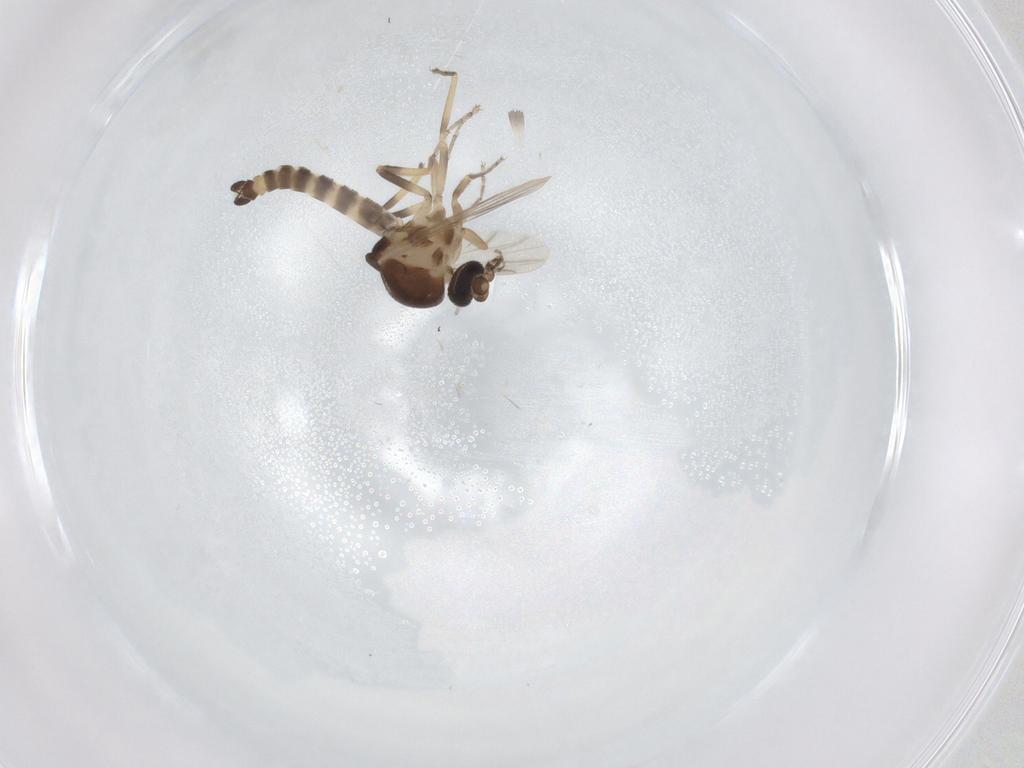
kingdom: Animalia
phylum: Arthropoda
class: Insecta
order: Diptera
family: Ceratopogonidae
